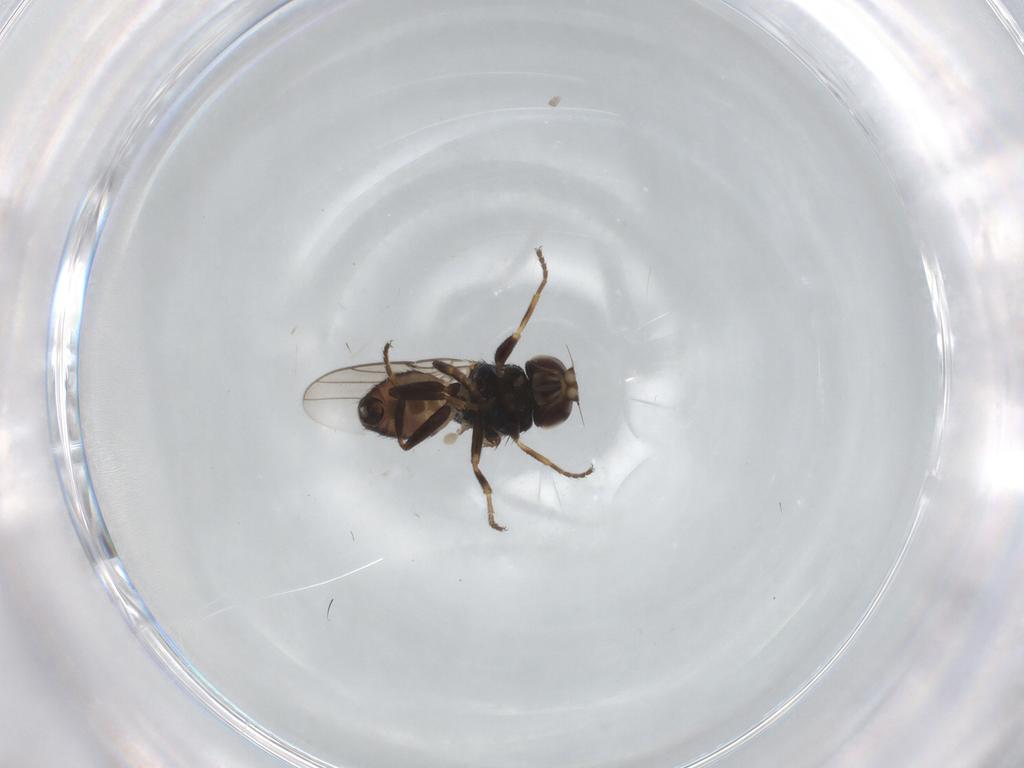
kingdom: Animalia
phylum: Arthropoda
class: Insecta
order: Diptera
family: Chloropidae
